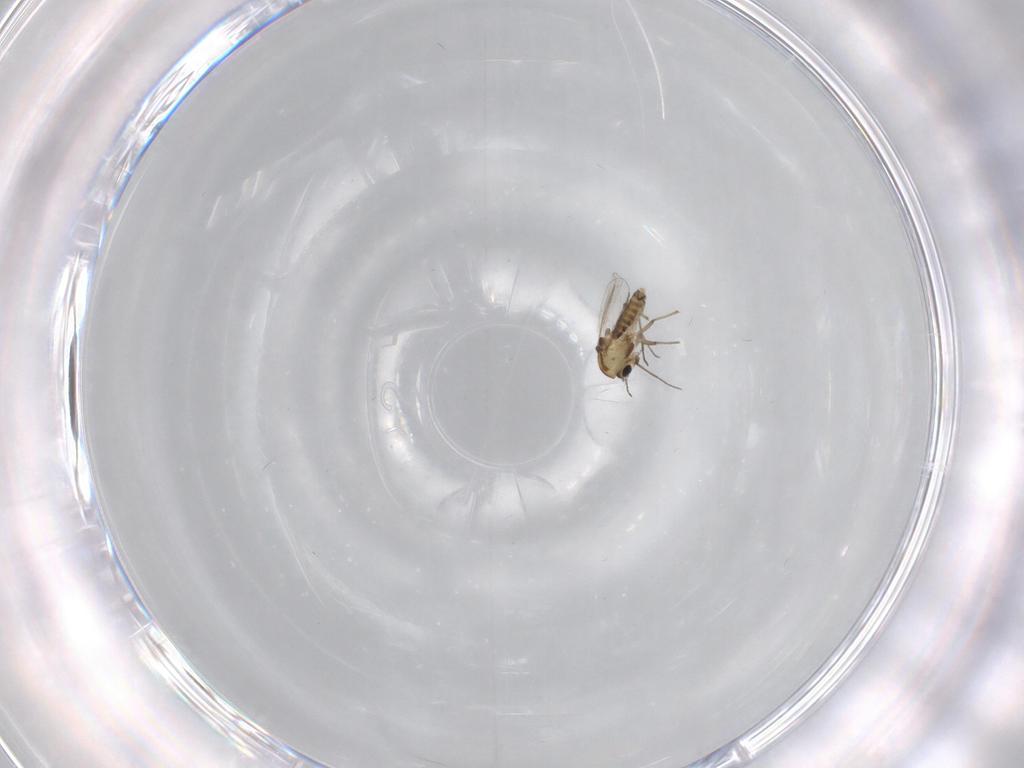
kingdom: Animalia
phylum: Arthropoda
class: Insecta
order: Diptera
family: Chironomidae
